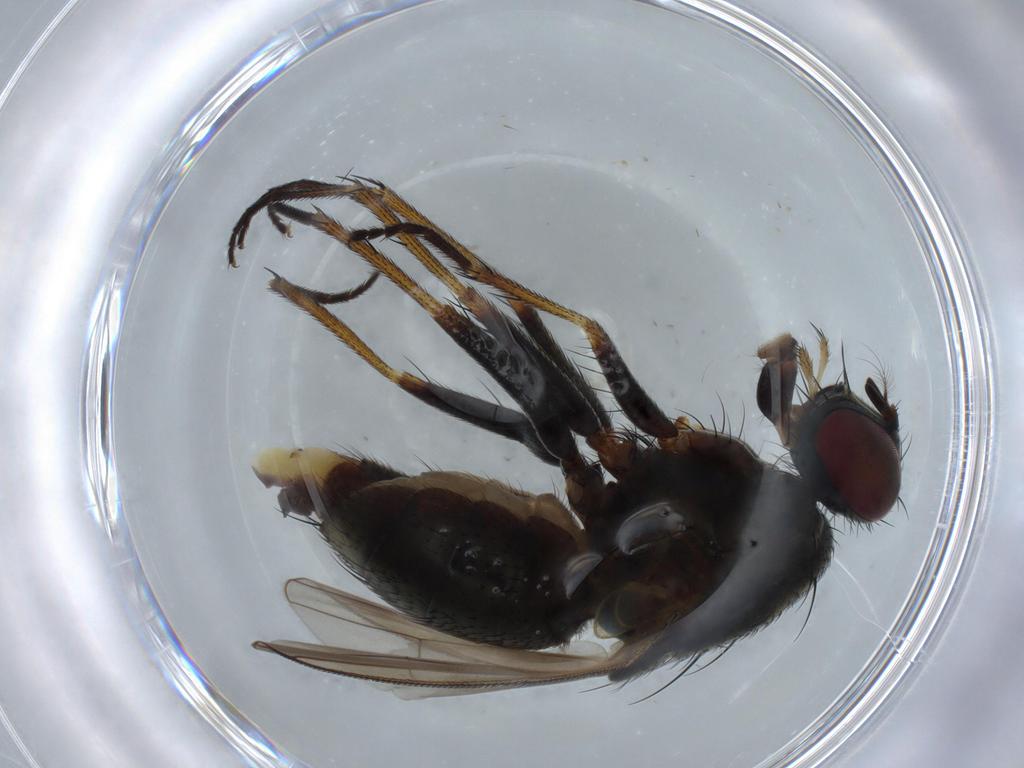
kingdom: Animalia
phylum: Arthropoda
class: Insecta
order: Diptera
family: Muscidae
